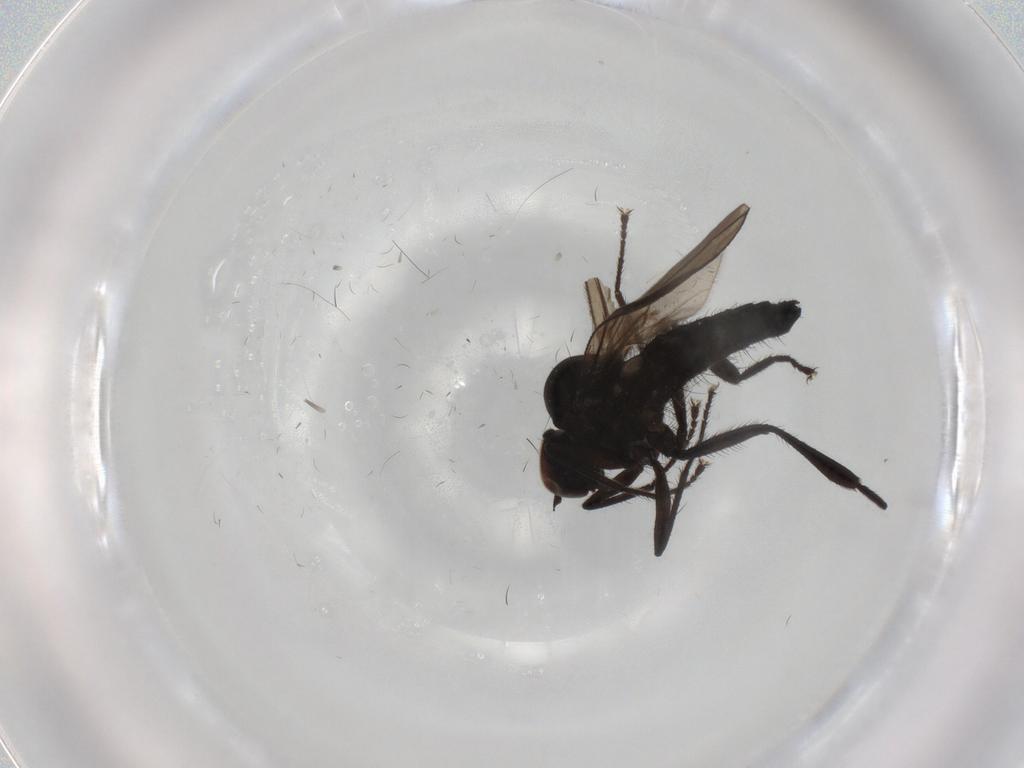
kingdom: Animalia
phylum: Arthropoda
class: Insecta
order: Diptera
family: Hybotidae
